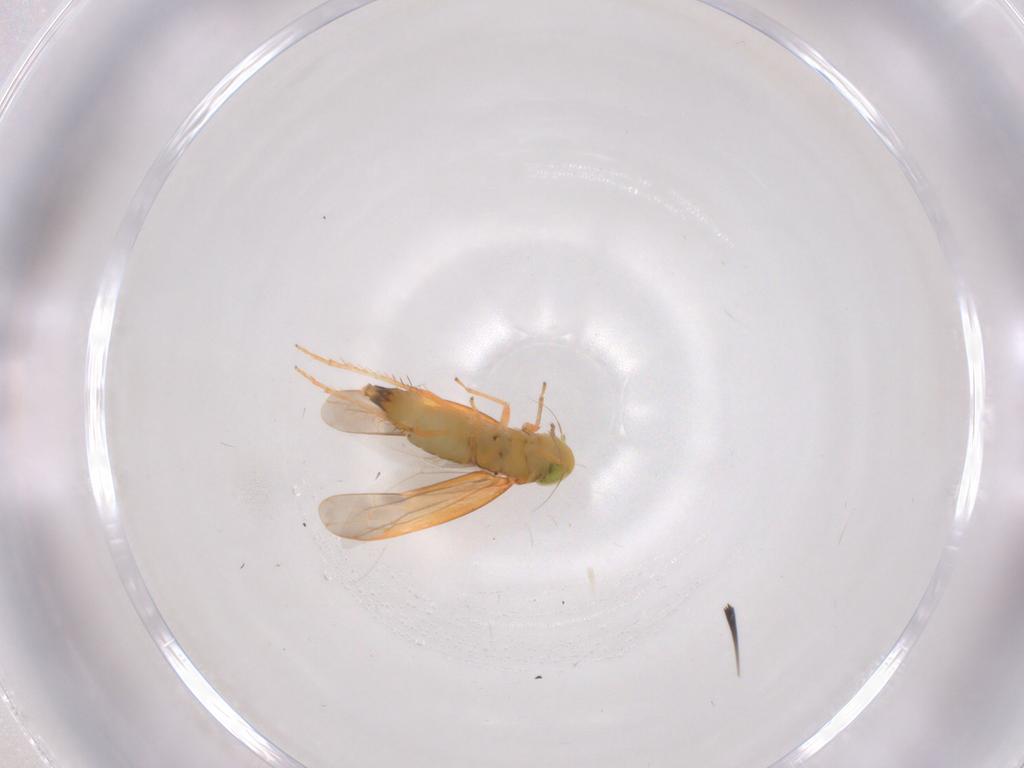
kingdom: Animalia
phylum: Arthropoda
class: Insecta
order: Hemiptera
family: Cicadellidae
